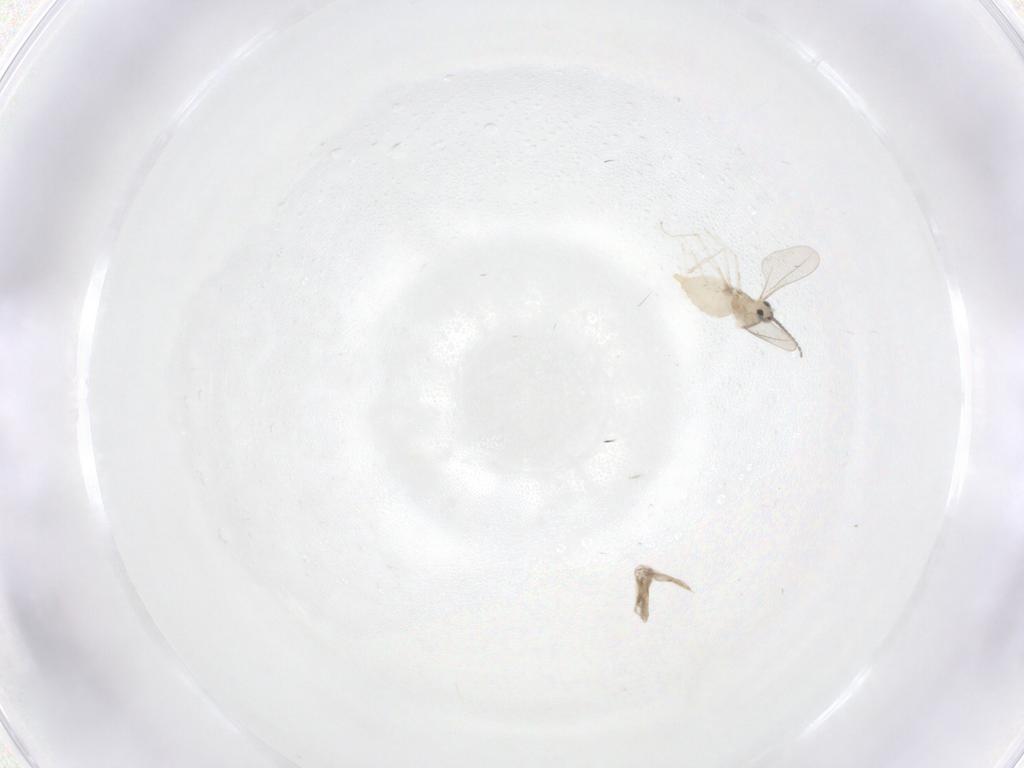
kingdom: Animalia
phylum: Arthropoda
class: Insecta
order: Diptera
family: Cecidomyiidae
